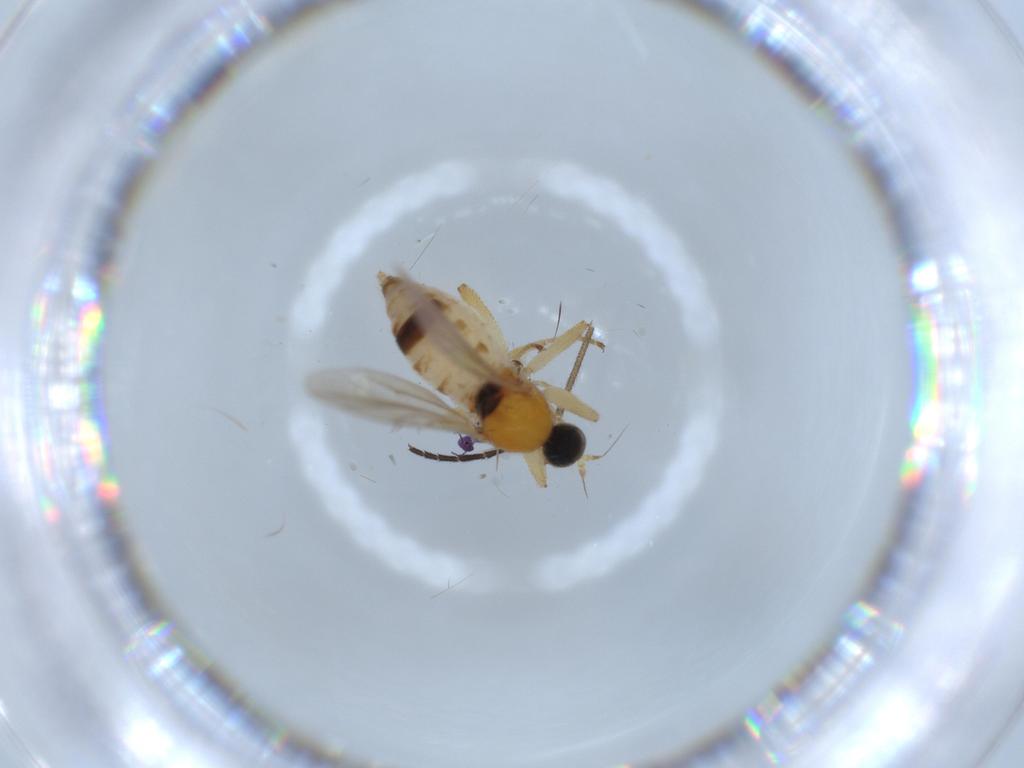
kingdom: Animalia
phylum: Arthropoda
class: Insecta
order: Diptera
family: Hybotidae
